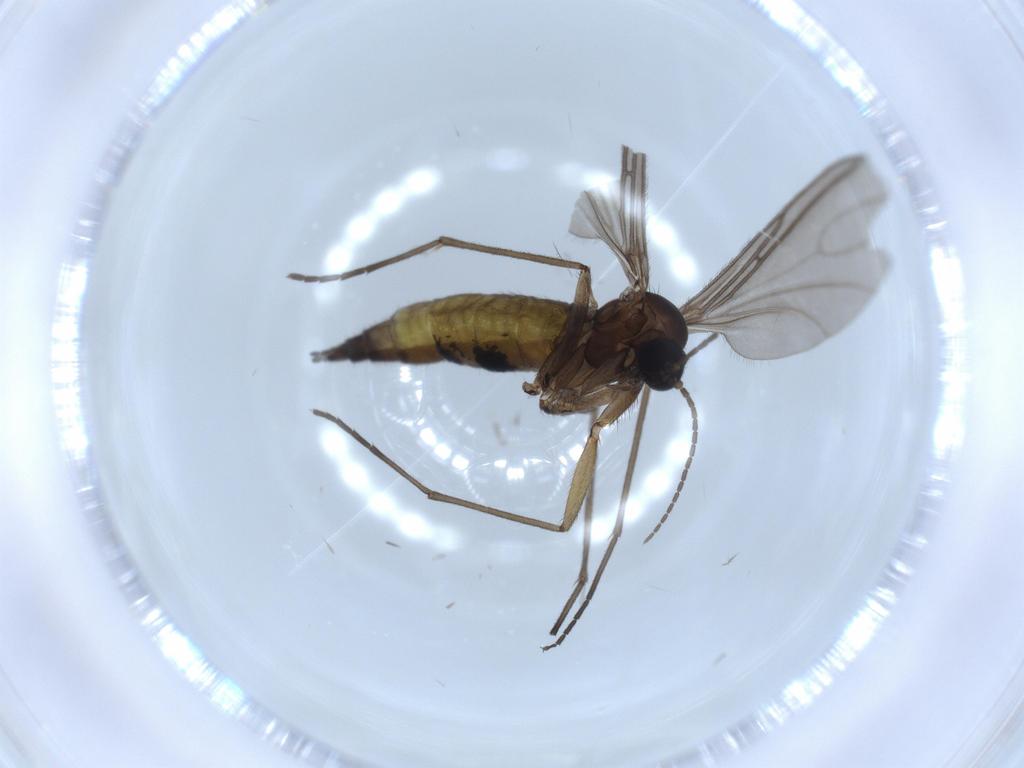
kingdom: Animalia
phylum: Arthropoda
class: Insecta
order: Diptera
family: Sciaridae
